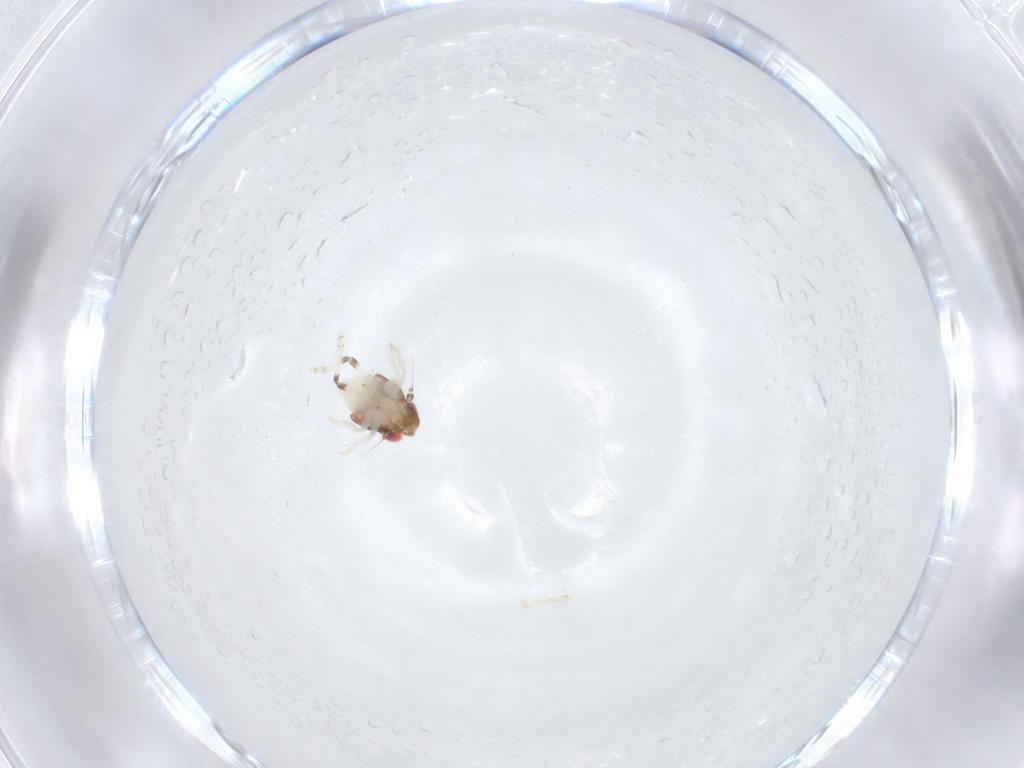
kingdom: Animalia
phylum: Arthropoda
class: Insecta
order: Hemiptera
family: Nogodinidae
